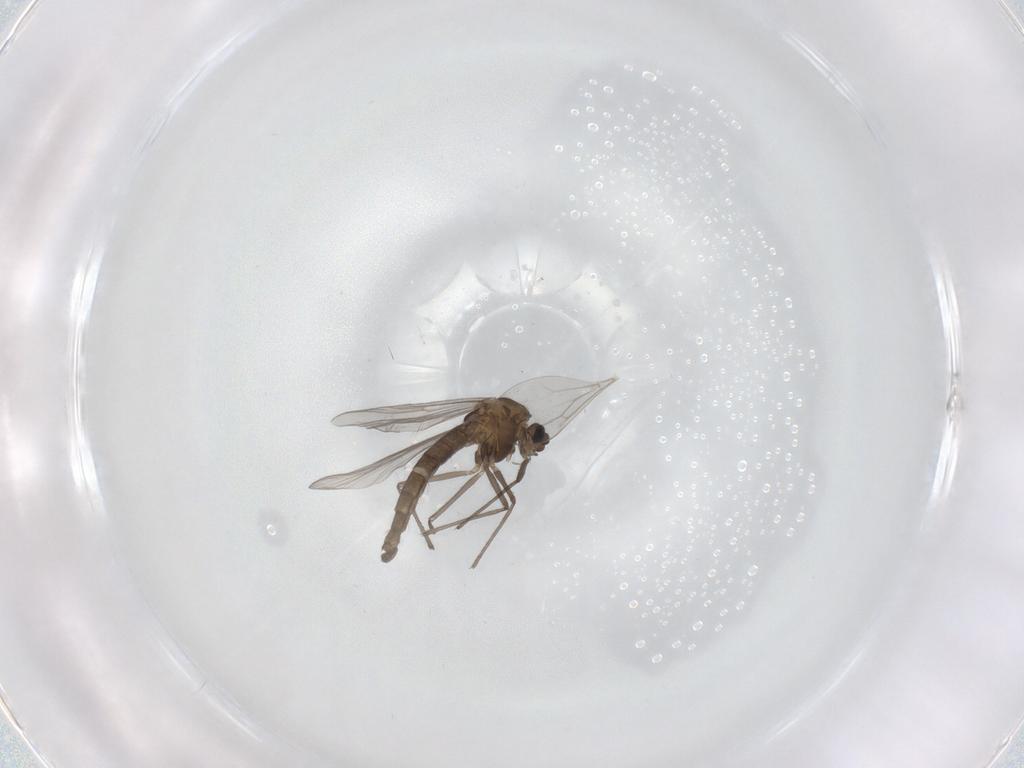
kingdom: Animalia
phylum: Arthropoda
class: Insecta
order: Diptera
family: Chironomidae
